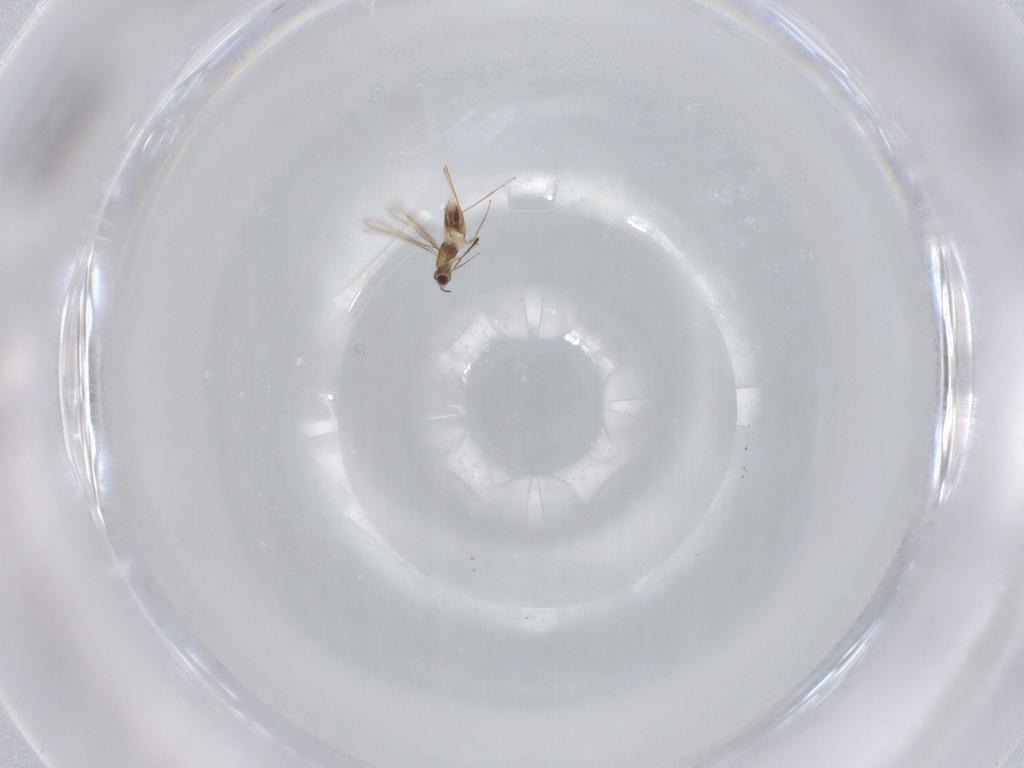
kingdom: Animalia
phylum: Arthropoda
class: Insecta
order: Hymenoptera
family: Mymaridae
